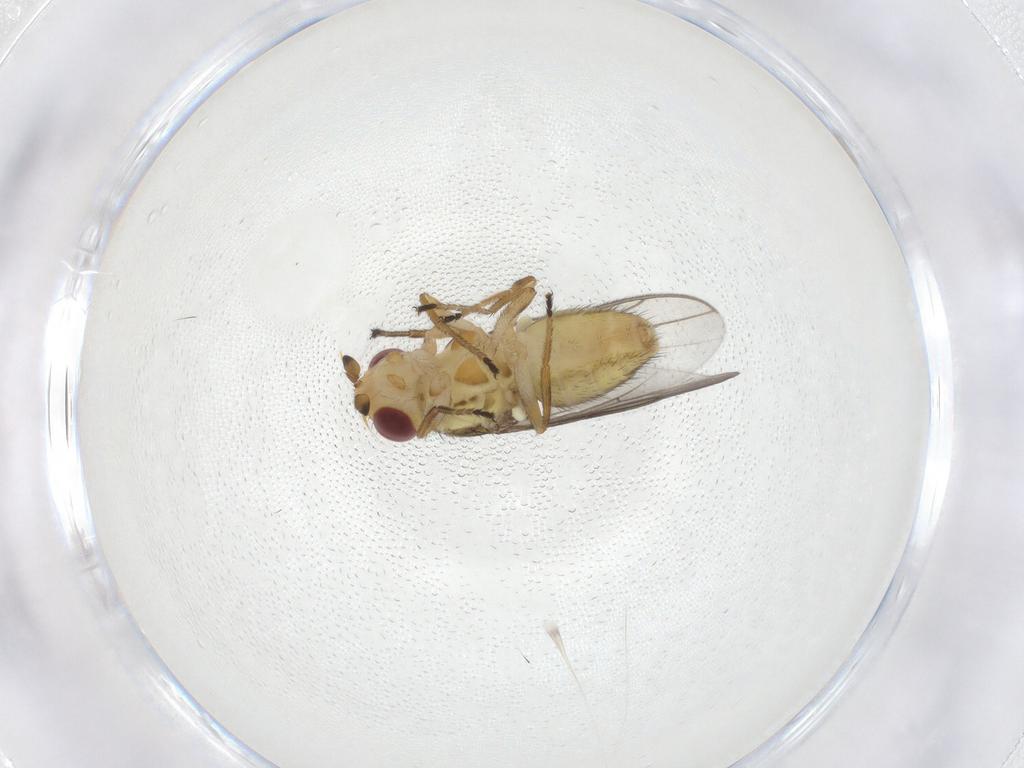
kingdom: Animalia
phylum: Arthropoda
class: Insecta
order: Diptera
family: Chloropidae
